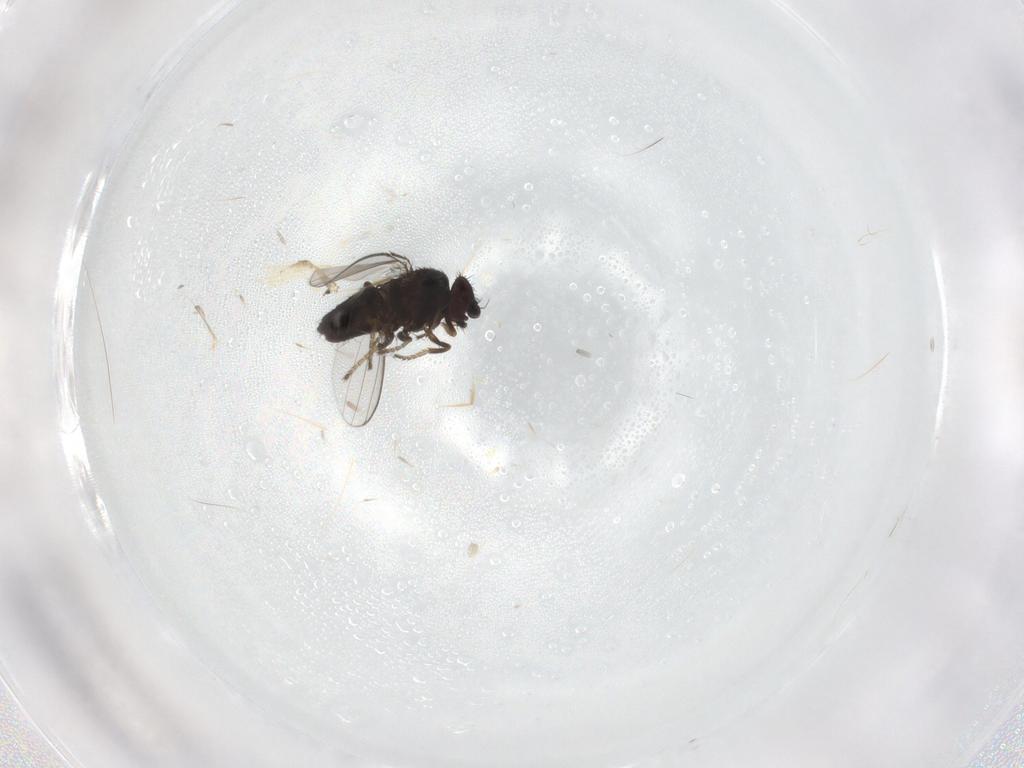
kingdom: Animalia
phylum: Arthropoda
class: Insecta
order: Diptera
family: Milichiidae
